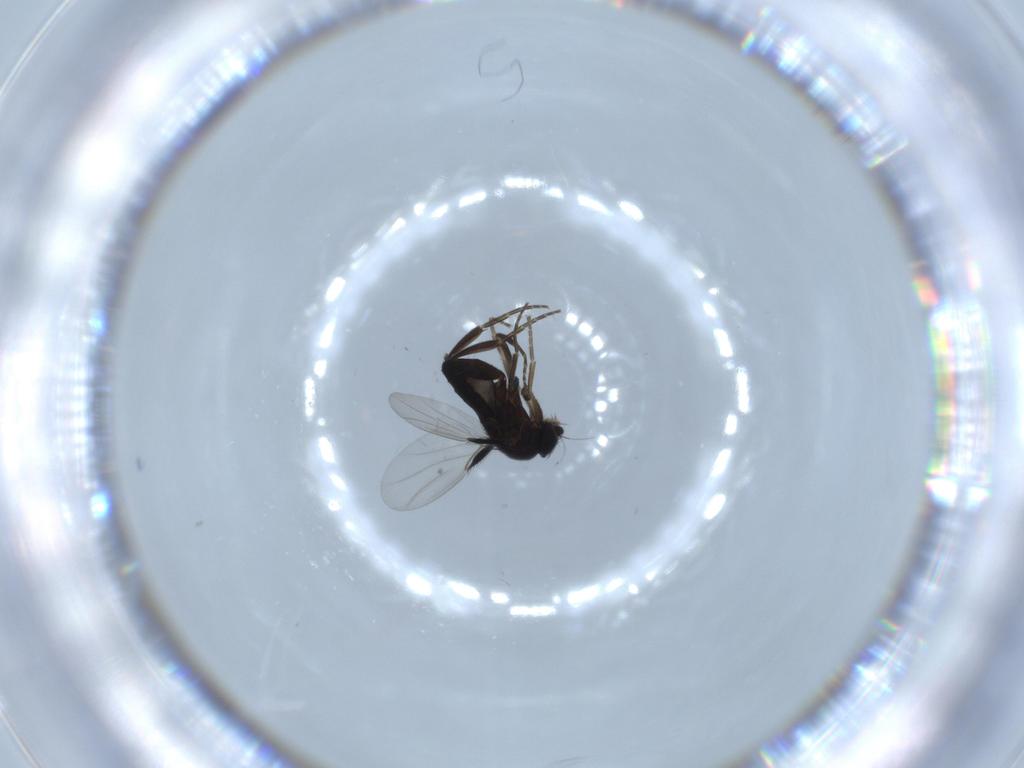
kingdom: Animalia
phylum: Arthropoda
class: Insecta
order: Diptera
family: Phoridae
